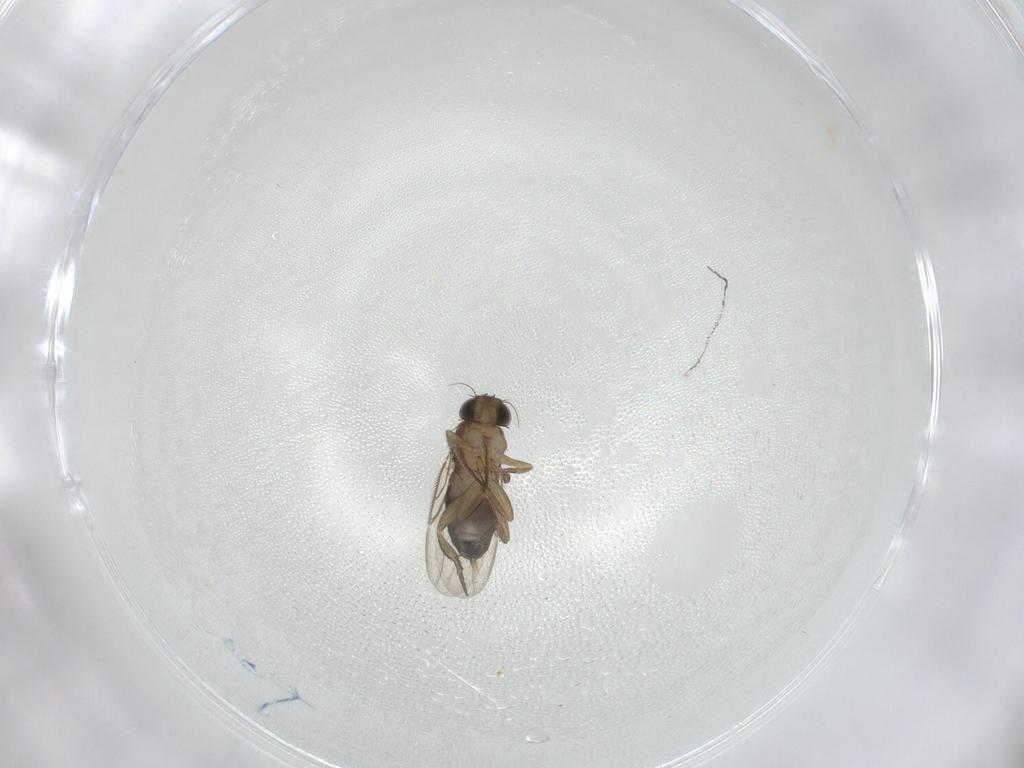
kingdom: Animalia
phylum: Arthropoda
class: Insecta
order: Diptera
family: Phoridae
